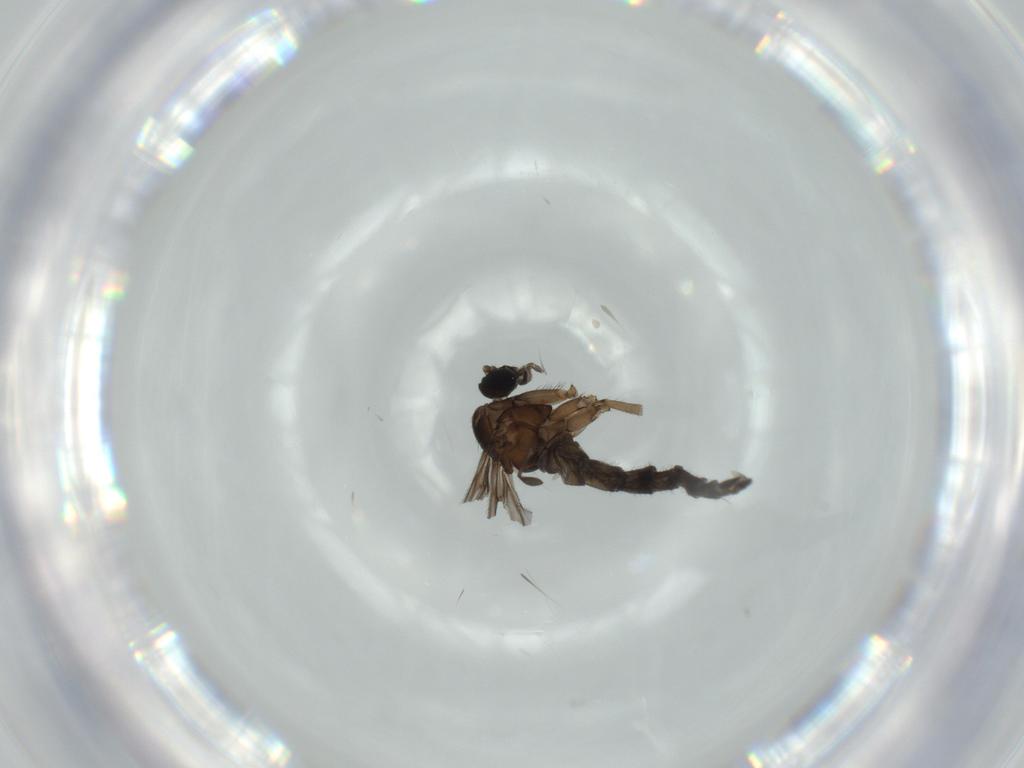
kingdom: Animalia
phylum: Arthropoda
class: Insecta
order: Diptera
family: Sciaridae
